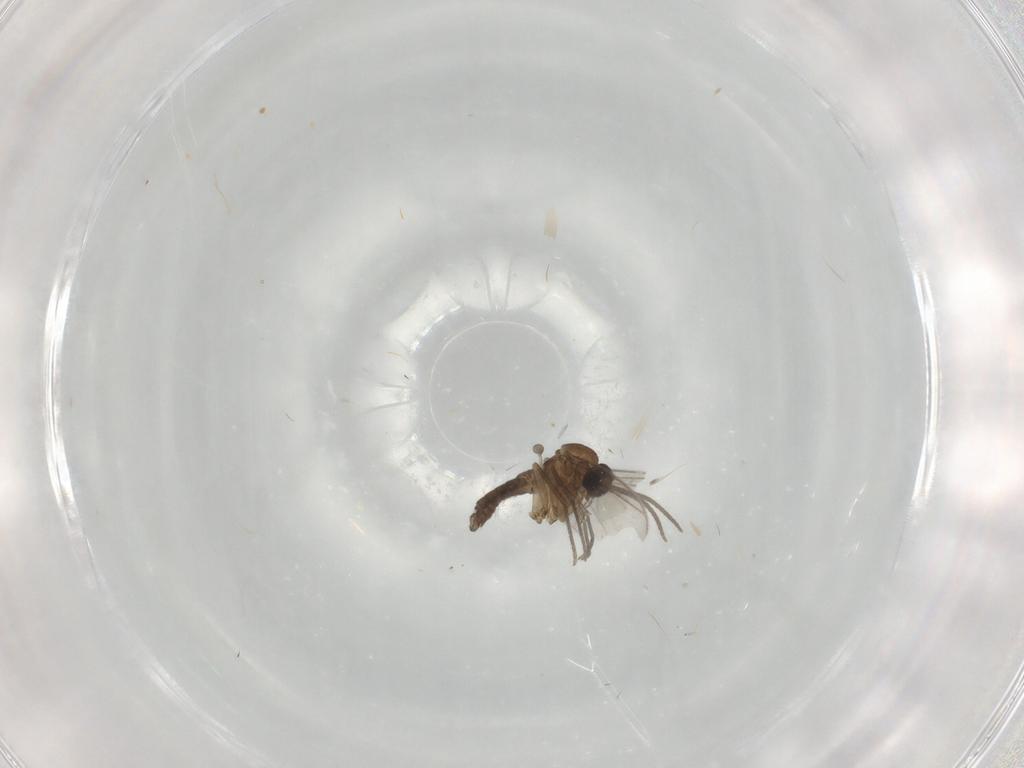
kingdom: Animalia
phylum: Arthropoda
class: Insecta
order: Diptera
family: Sciaridae
